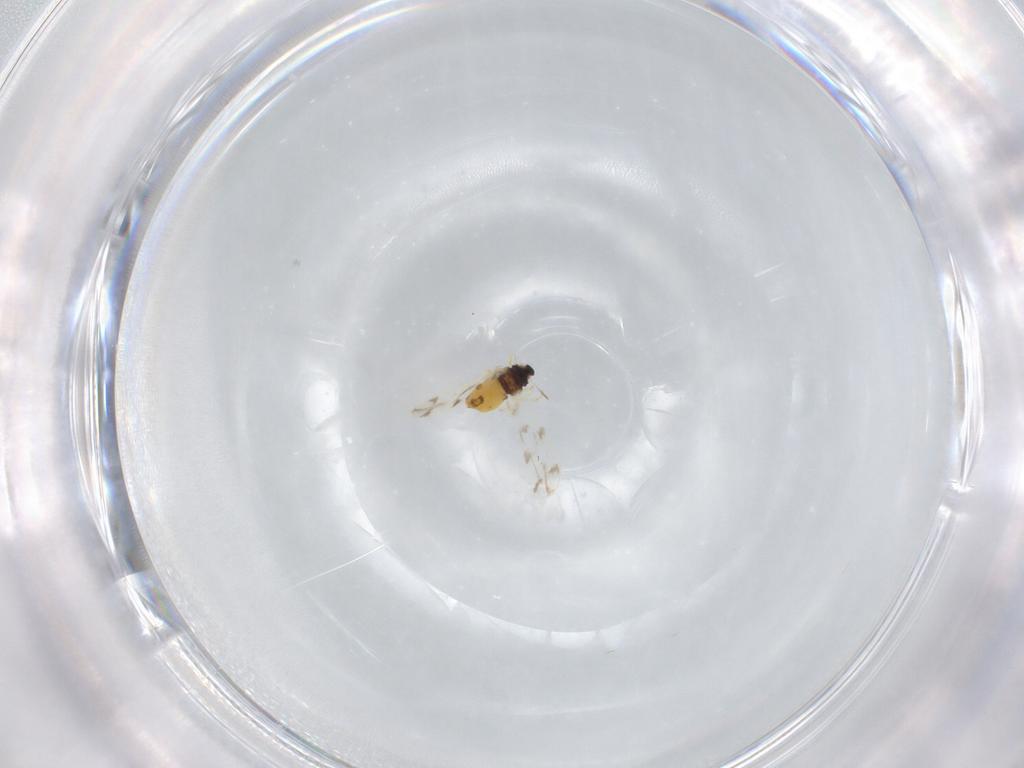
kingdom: Animalia
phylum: Arthropoda
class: Insecta
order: Hemiptera
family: Aleyrodidae
